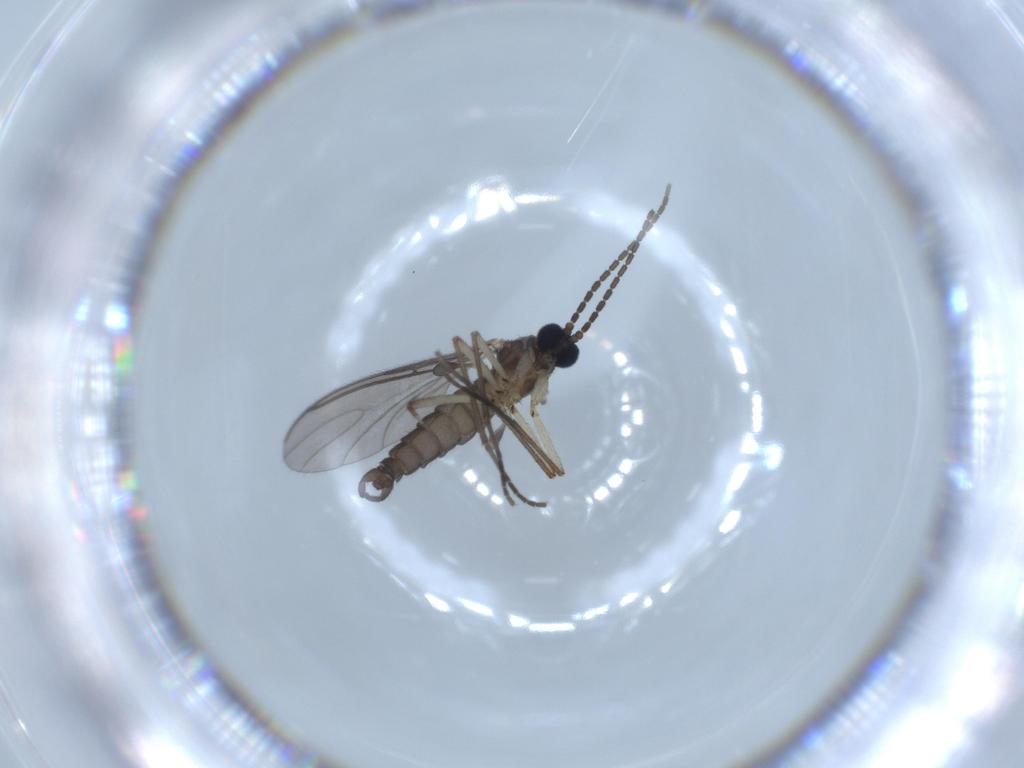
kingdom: Animalia
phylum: Arthropoda
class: Insecta
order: Diptera
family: Sciaridae
